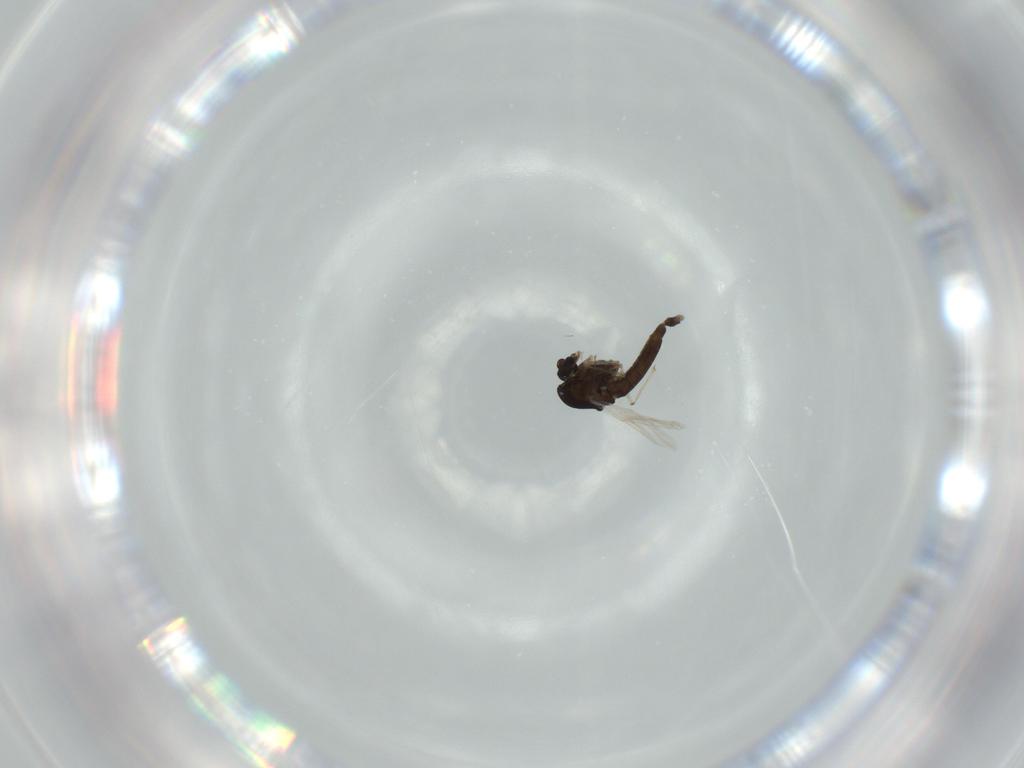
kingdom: Animalia
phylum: Arthropoda
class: Insecta
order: Diptera
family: Chironomidae
